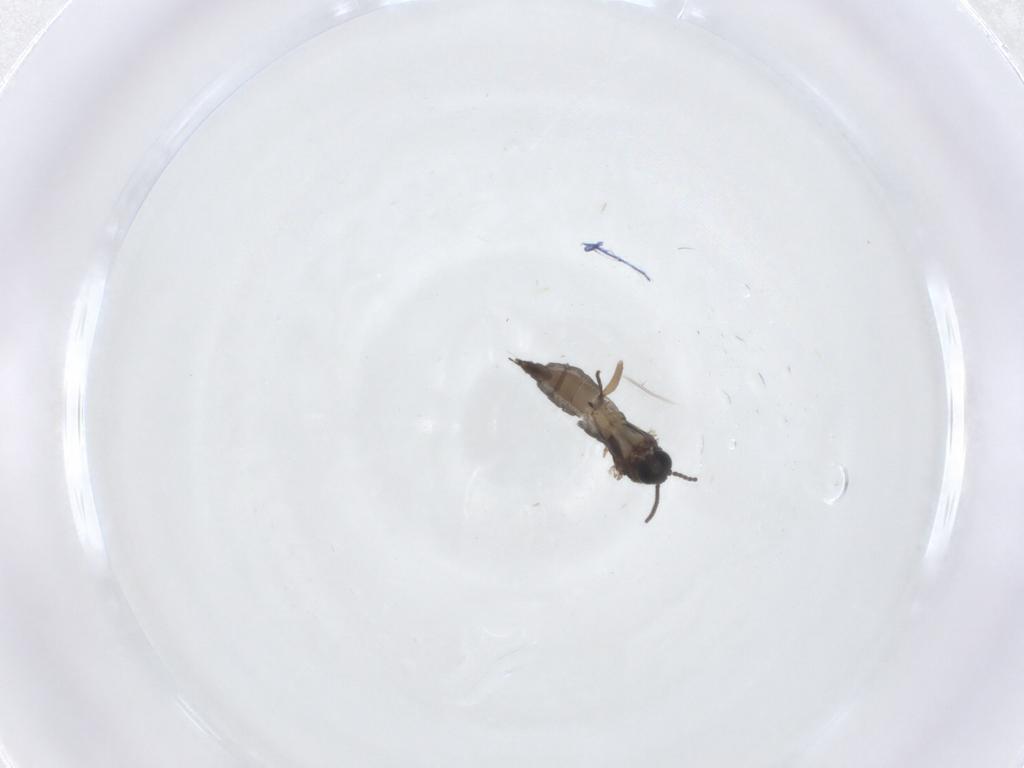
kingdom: Animalia
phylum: Arthropoda
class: Insecta
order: Diptera
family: Sciaridae
